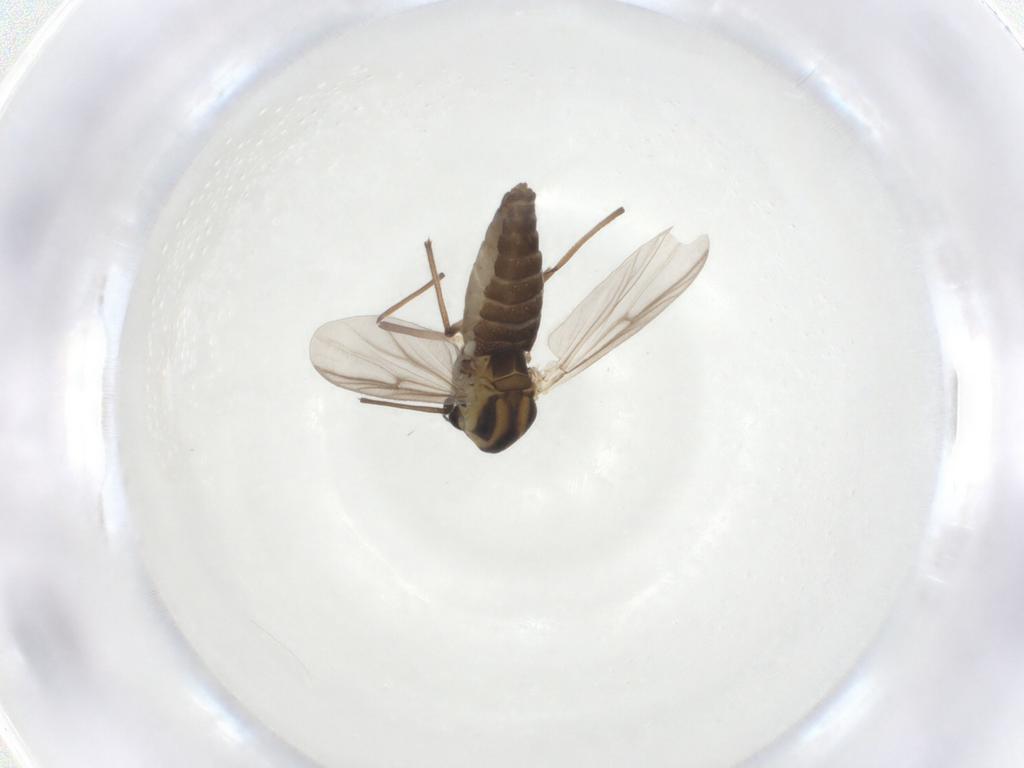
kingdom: Animalia
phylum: Arthropoda
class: Insecta
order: Diptera
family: Chironomidae
